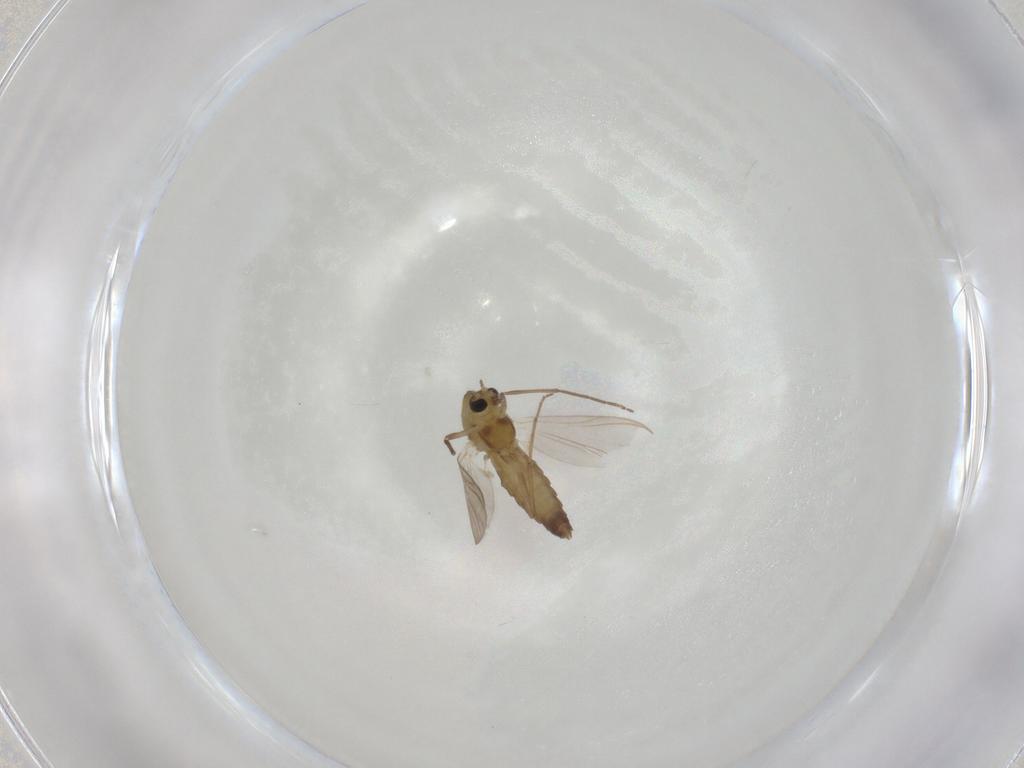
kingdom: Animalia
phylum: Arthropoda
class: Insecta
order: Diptera
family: Chironomidae
